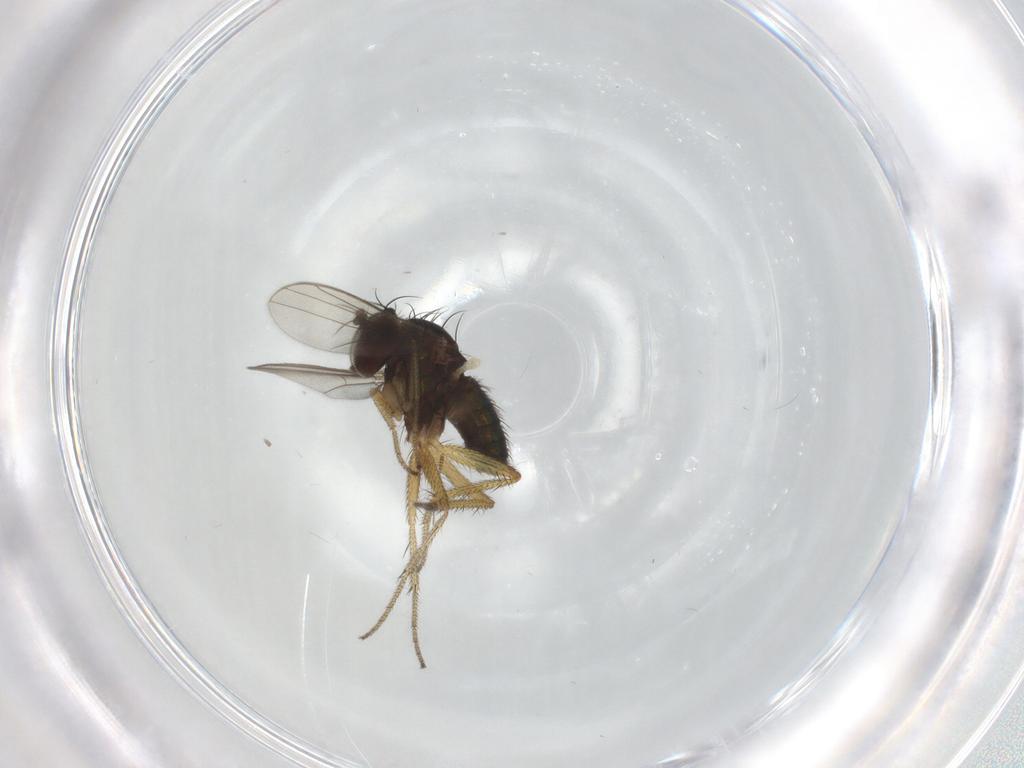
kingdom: Animalia
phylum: Arthropoda
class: Insecta
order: Diptera
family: Chironomidae
